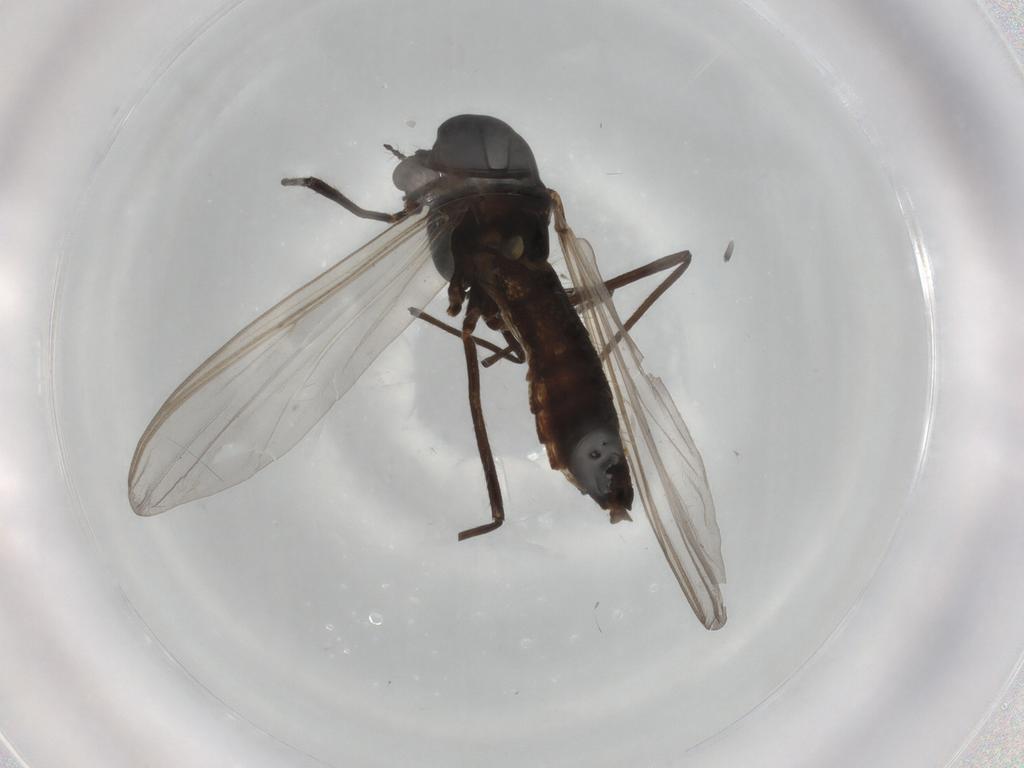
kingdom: Animalia
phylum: Arthropoda
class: Insecta
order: Diptera
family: Chironomidae
